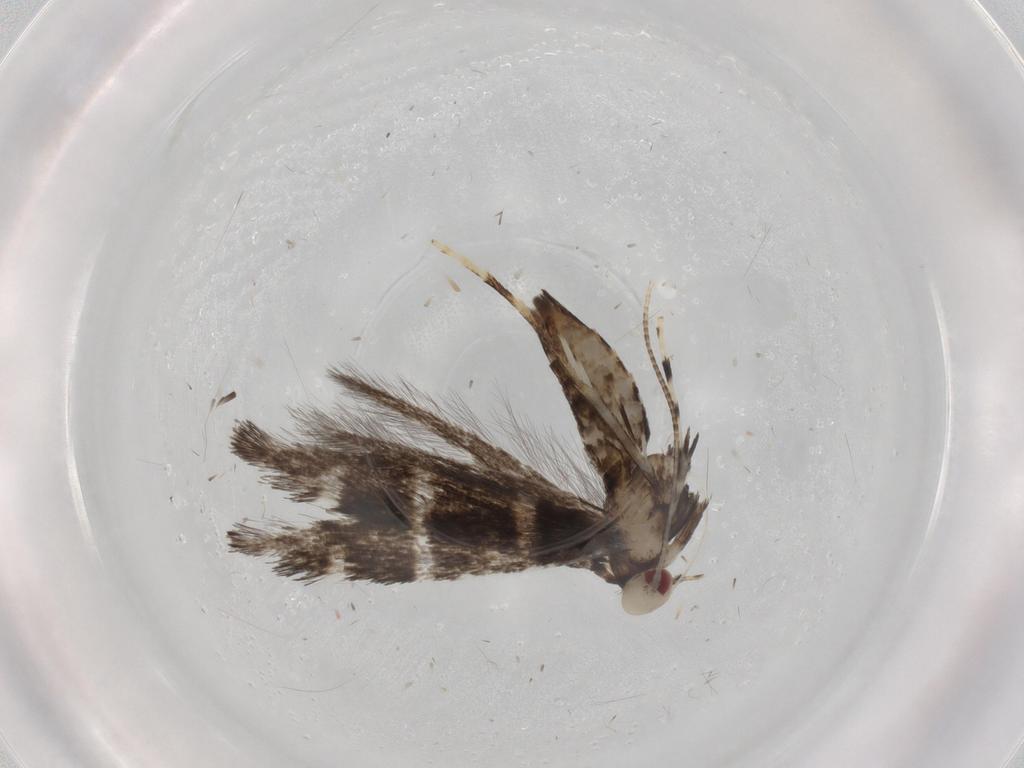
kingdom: Animalia
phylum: Arthropoda
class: Insecta
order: Lepidoptera
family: Gracillariidae
